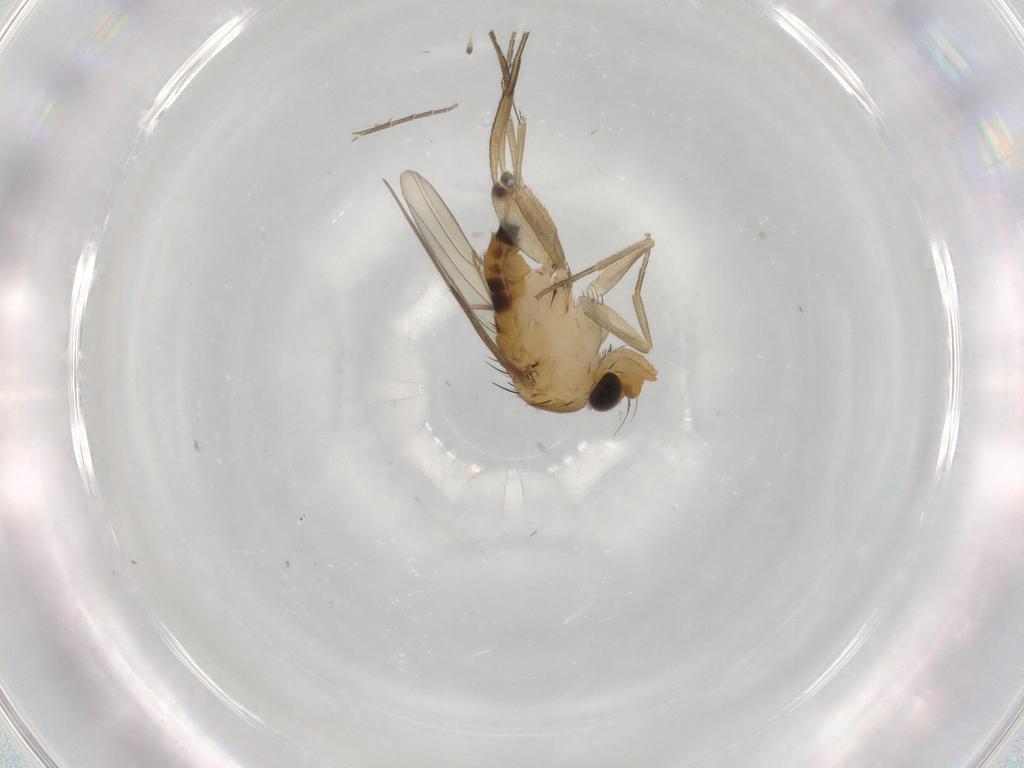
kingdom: Animalia
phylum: Arthropoda
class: Insecta
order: Diptera
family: Phoridae
